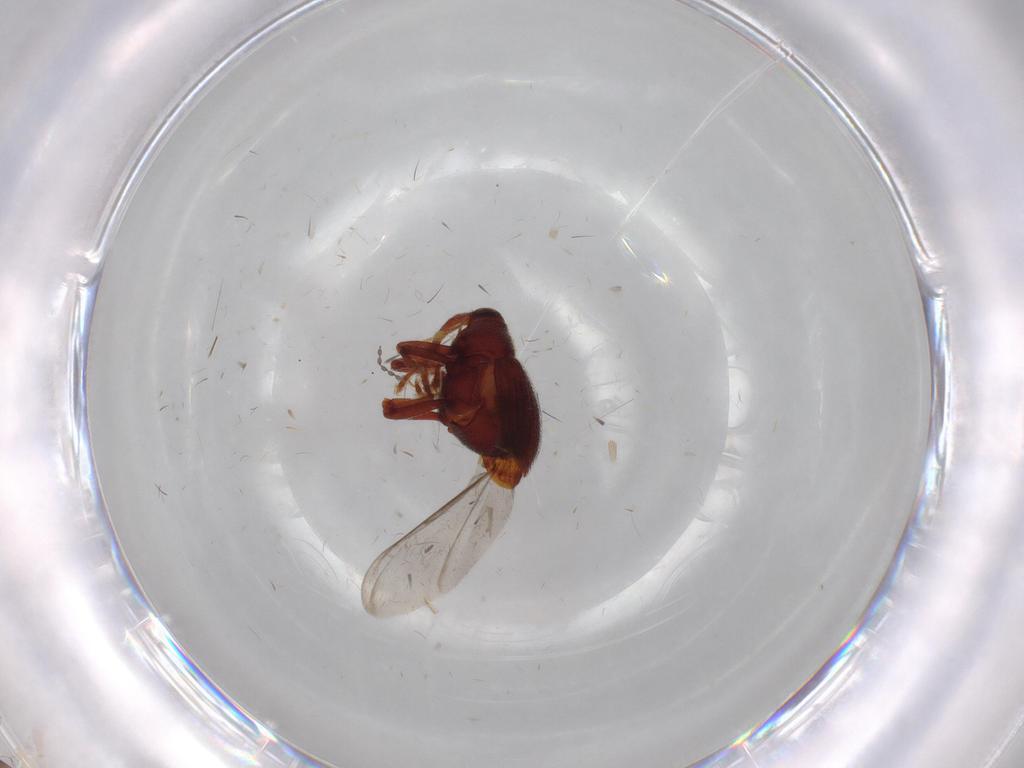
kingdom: Animalia
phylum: Arthropoda
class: Insecta
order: Coleoptera
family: Curculionidae
